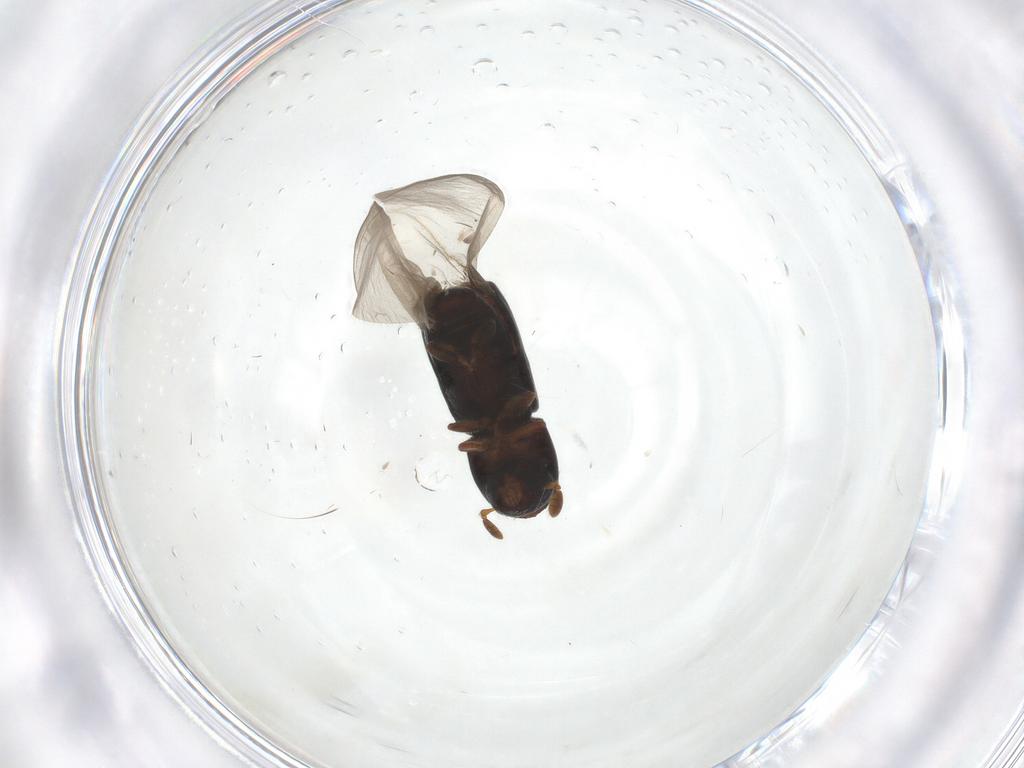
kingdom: Animalia
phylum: Arthropoda
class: Insecta
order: Coleoptera
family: Curculionidae
